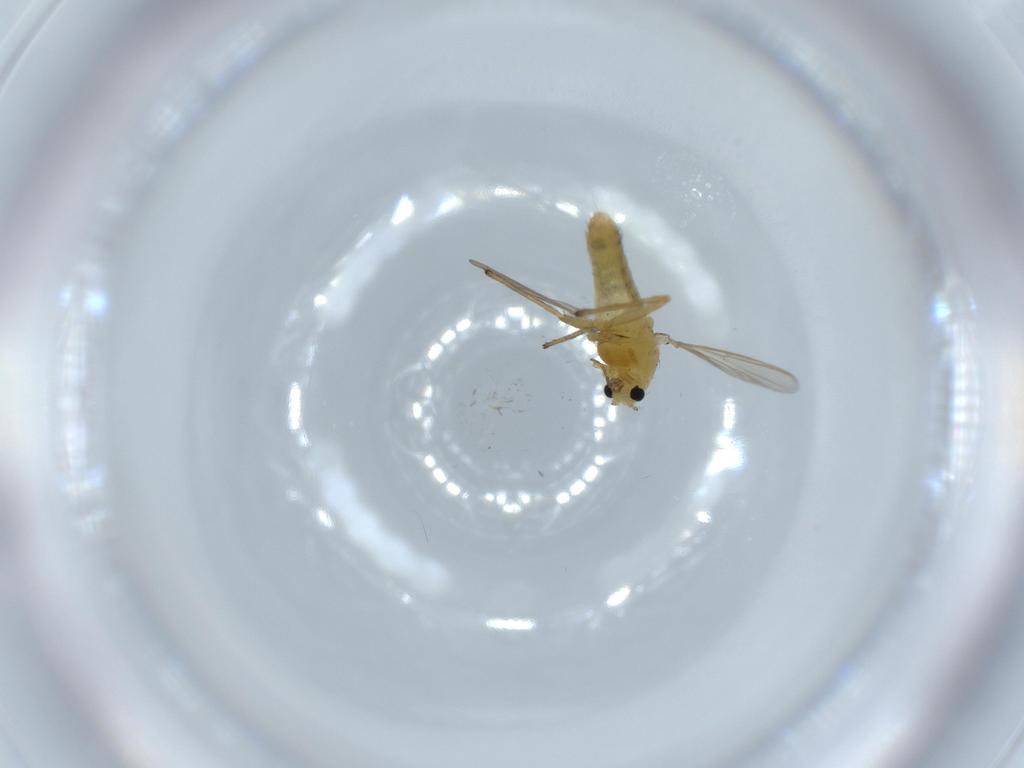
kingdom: Animalia
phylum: Arthropoda
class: Insecta
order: Diptera
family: Chironomidae
